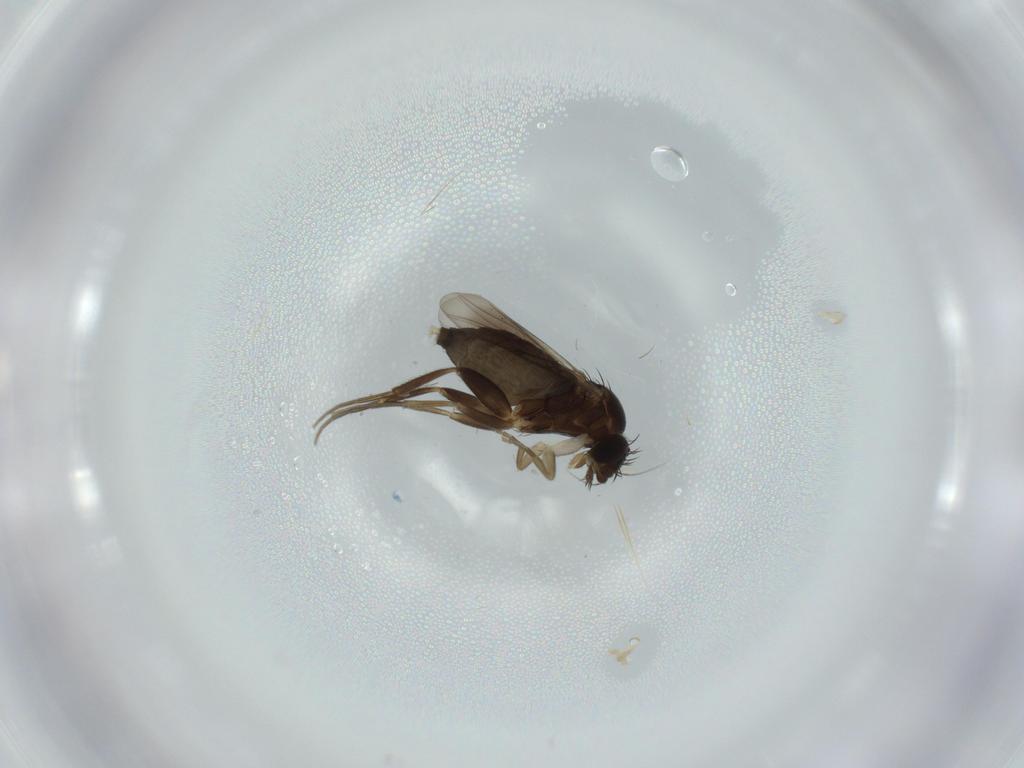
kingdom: Animalia
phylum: Arthropoda
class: Insecta
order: Diptera
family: Phoridae
